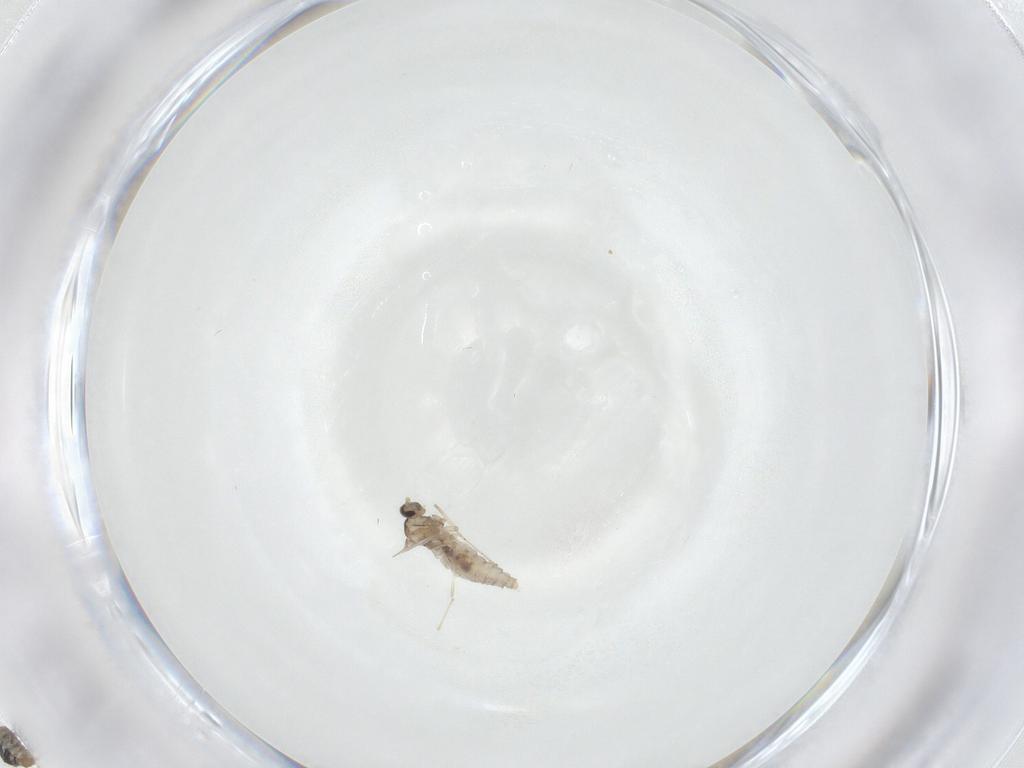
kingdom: Animalia
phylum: Arthropoda
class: Insecta
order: Diptera
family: Cecidomyiidae
